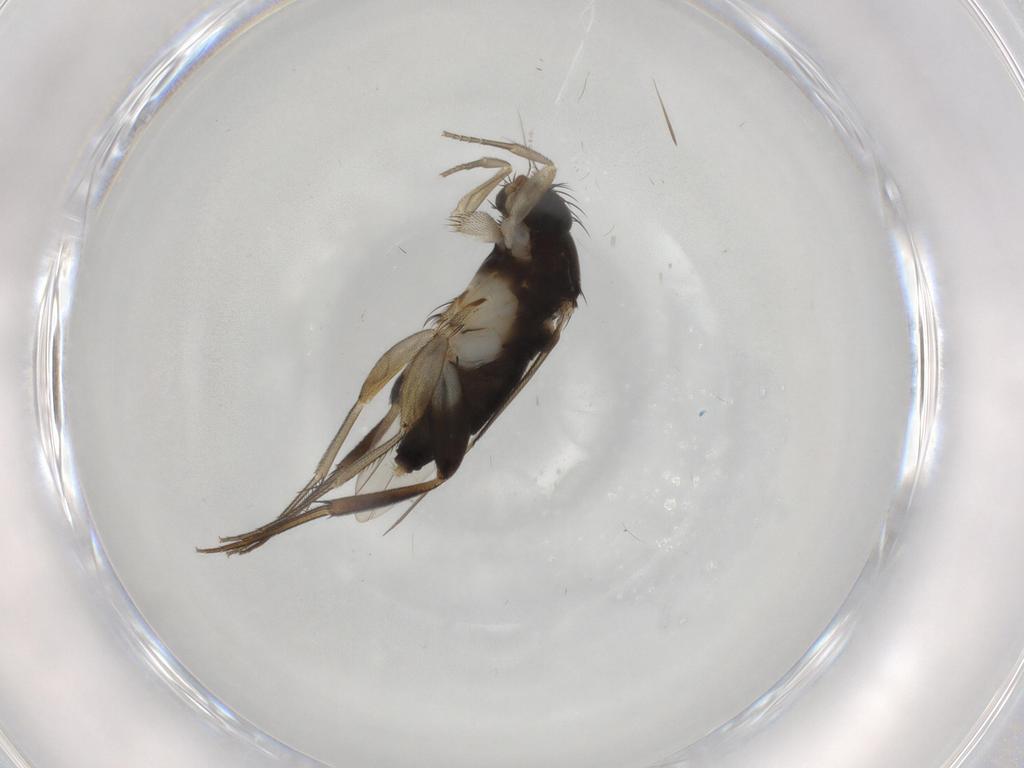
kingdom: Animalia
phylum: Arthropoda
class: Insecta
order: Diptera
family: Phoridae
